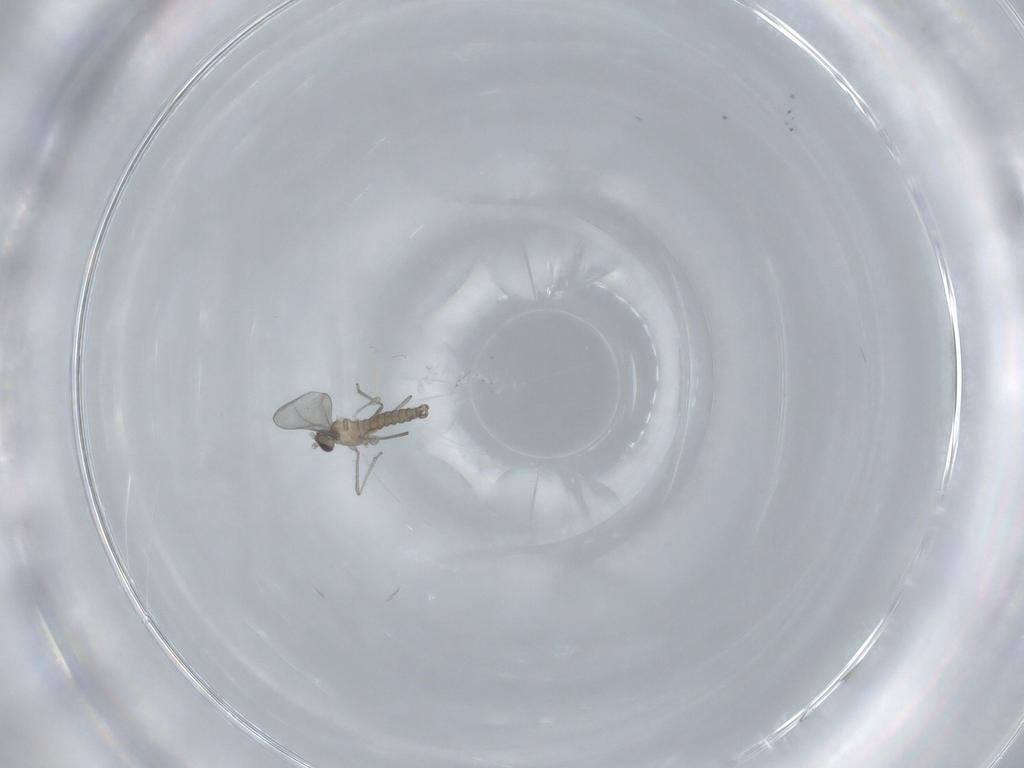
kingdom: Animalia
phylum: Arthropoda
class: Insecta
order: Diptera
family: Cecidomyiidae
